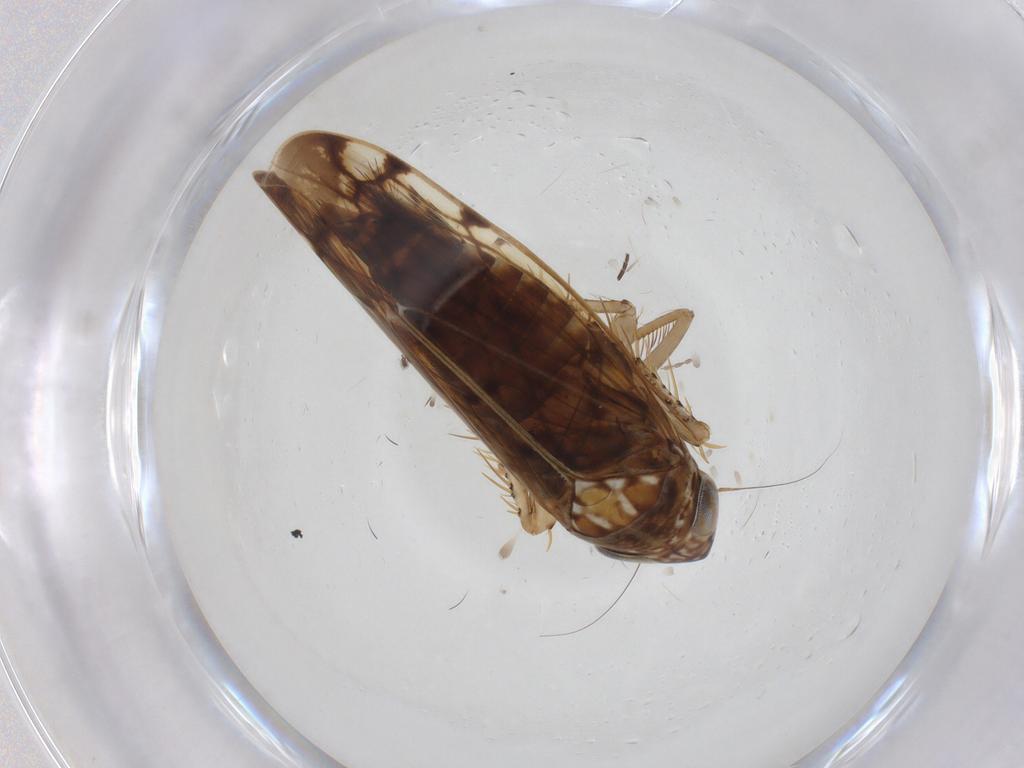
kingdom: Animalia
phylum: Arthropoda
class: Insecta
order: Hemiptera
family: Cicadellidae
